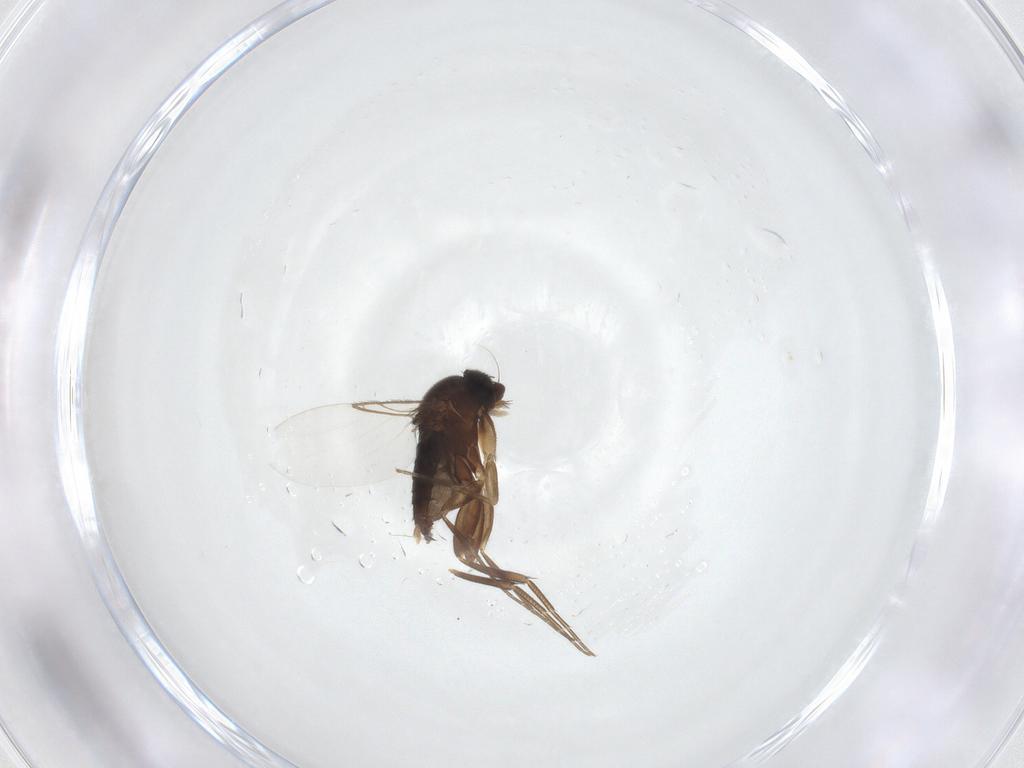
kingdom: Animalia
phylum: Arthropoda
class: Insecta
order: Diptera
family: Phoridae
